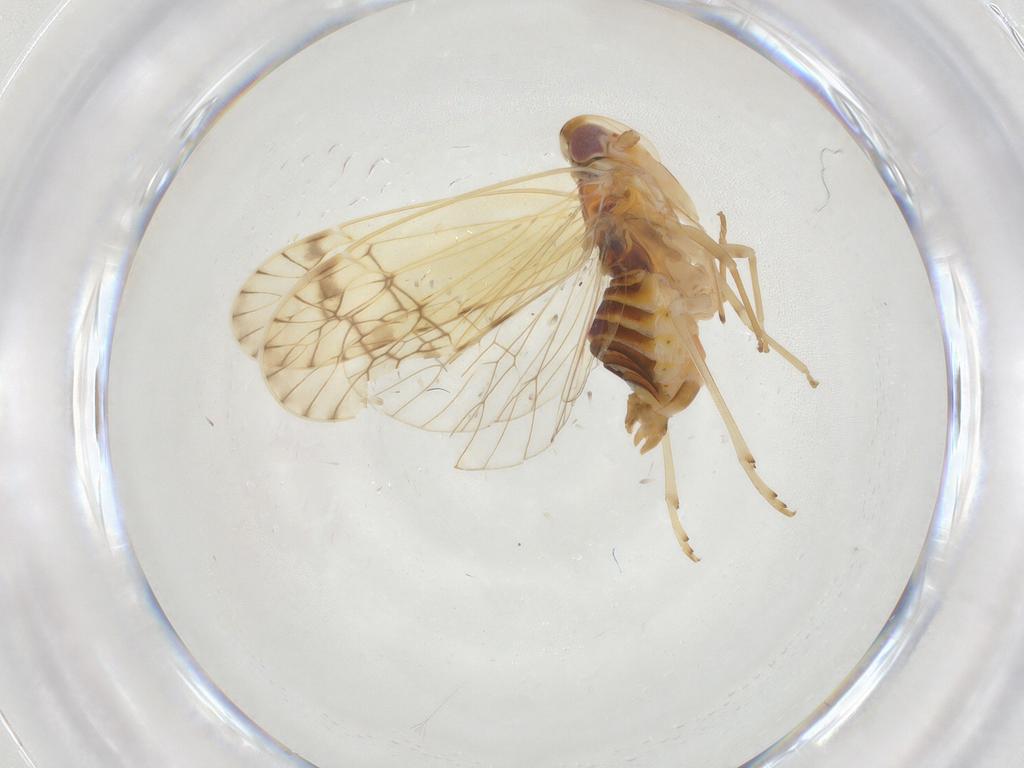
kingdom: Animalia
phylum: Arthropoda
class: Insecta
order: Hemiptera
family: Kinnaridae
